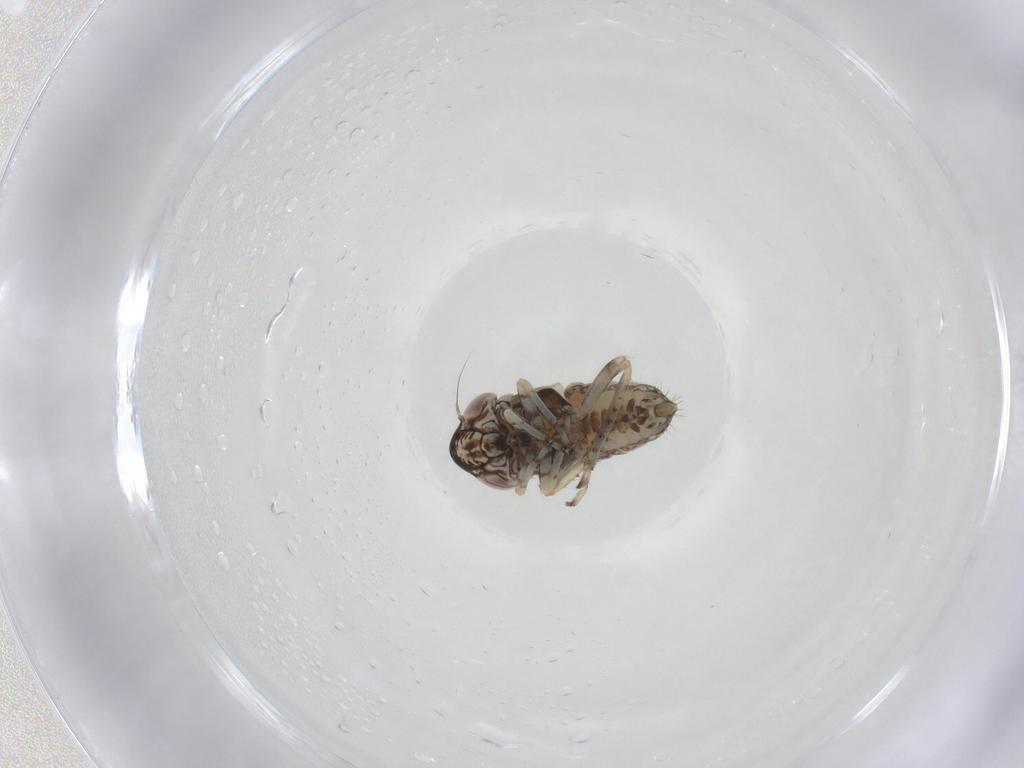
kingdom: Animalia
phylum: Arthropoda
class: Insecta
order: Hemiptera
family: Cicadellidae
